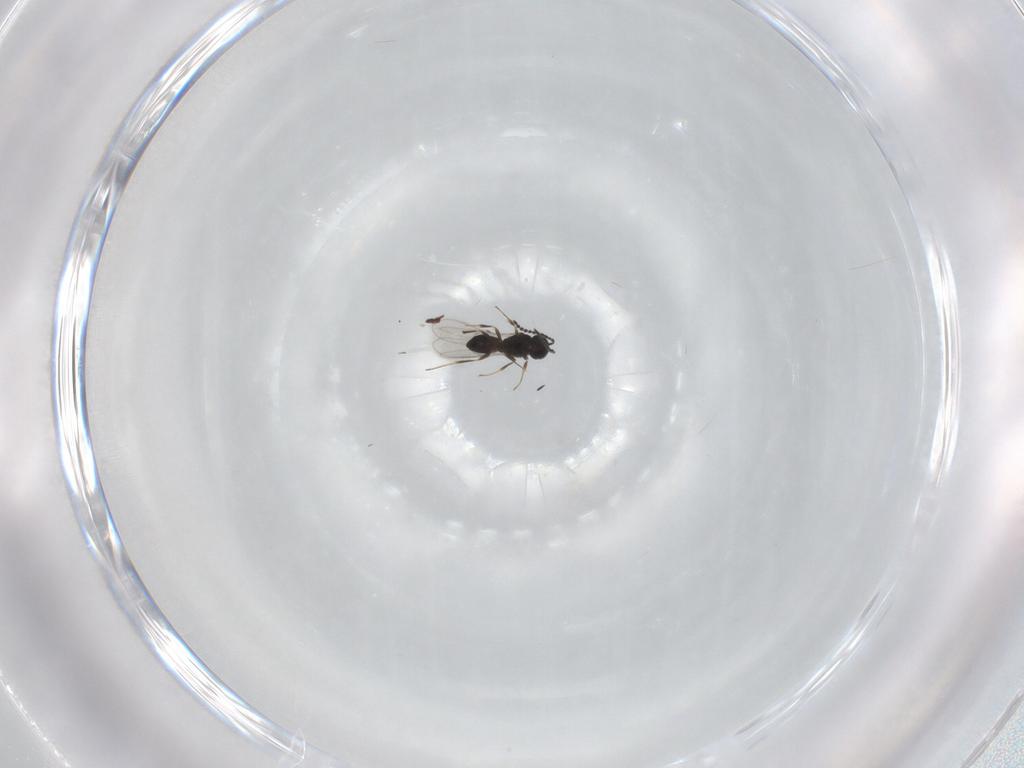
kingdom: Animalia
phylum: Arthropoda
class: Insecta
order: Hymenoptera
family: Scelionidae
